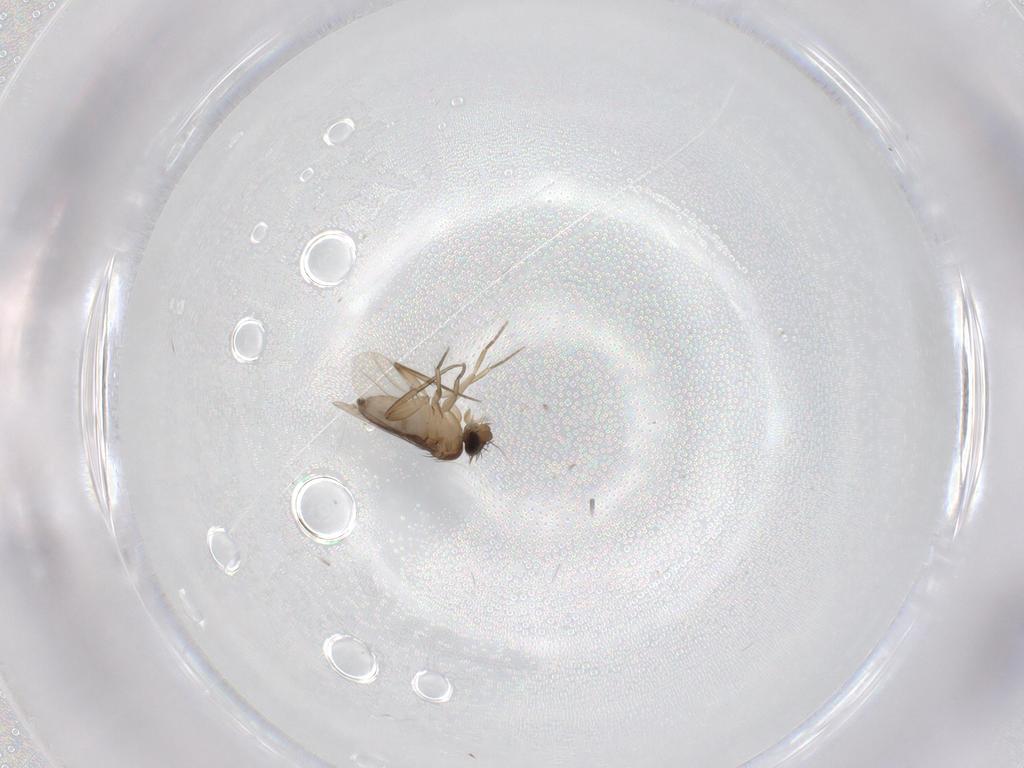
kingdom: Animalia
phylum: Arthropoda
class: Insecta
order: Diptera
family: Phoridae
